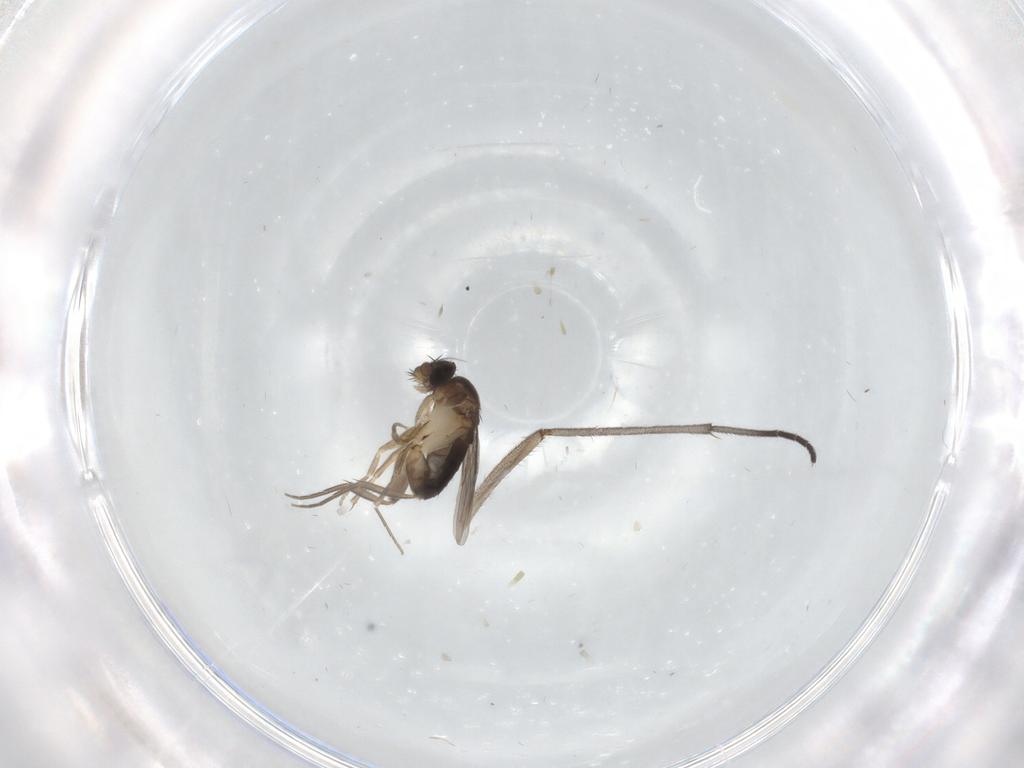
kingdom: Animalia
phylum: Arthropoda
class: Insecta
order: Diptera
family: Phoridae
